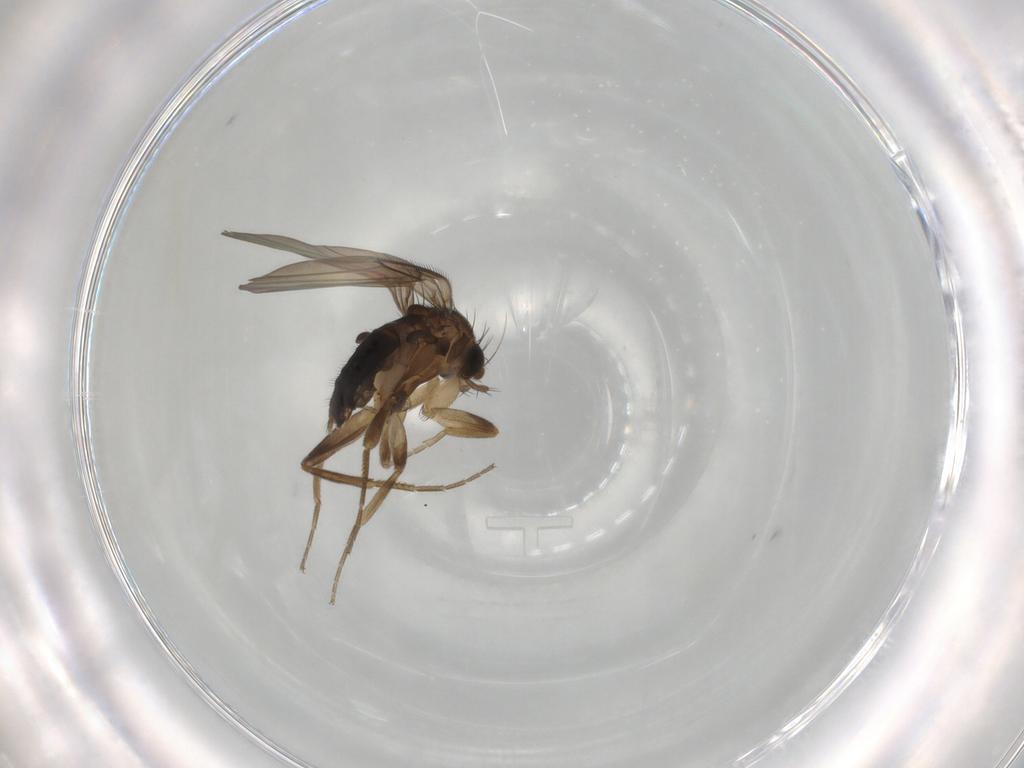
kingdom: Animalia
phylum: Arthropoda
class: Insecta
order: Diptera
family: Phoridae
